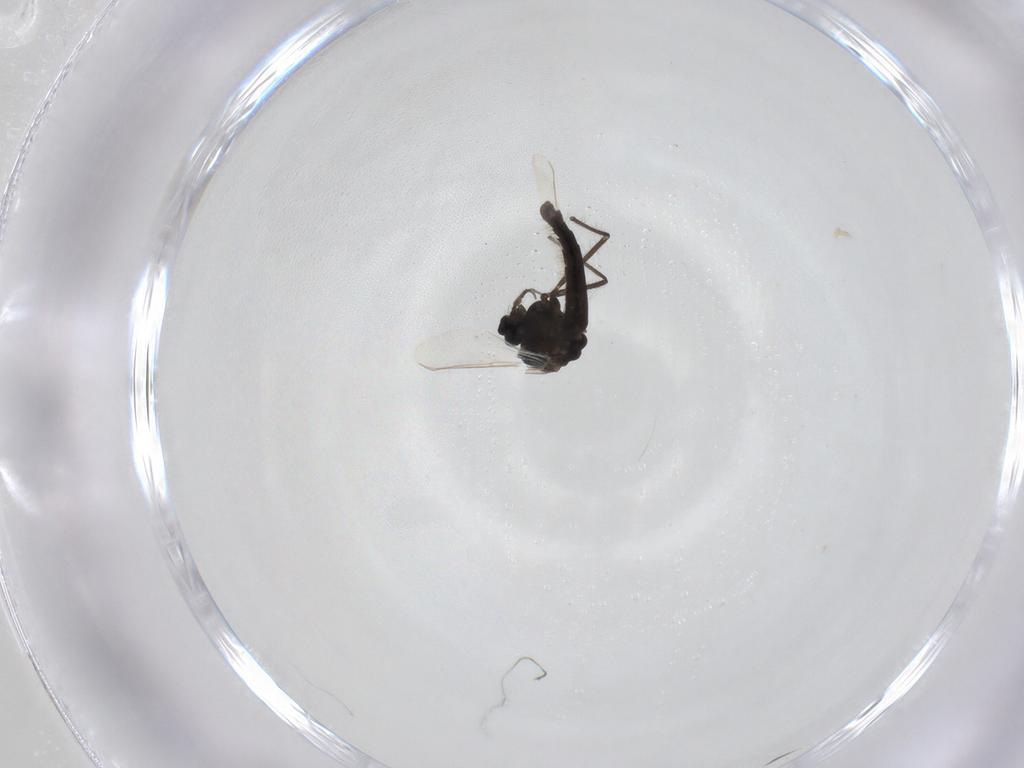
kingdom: Animalia
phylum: Arthropoda
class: Insecta
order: Diptera
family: Chironomidae
